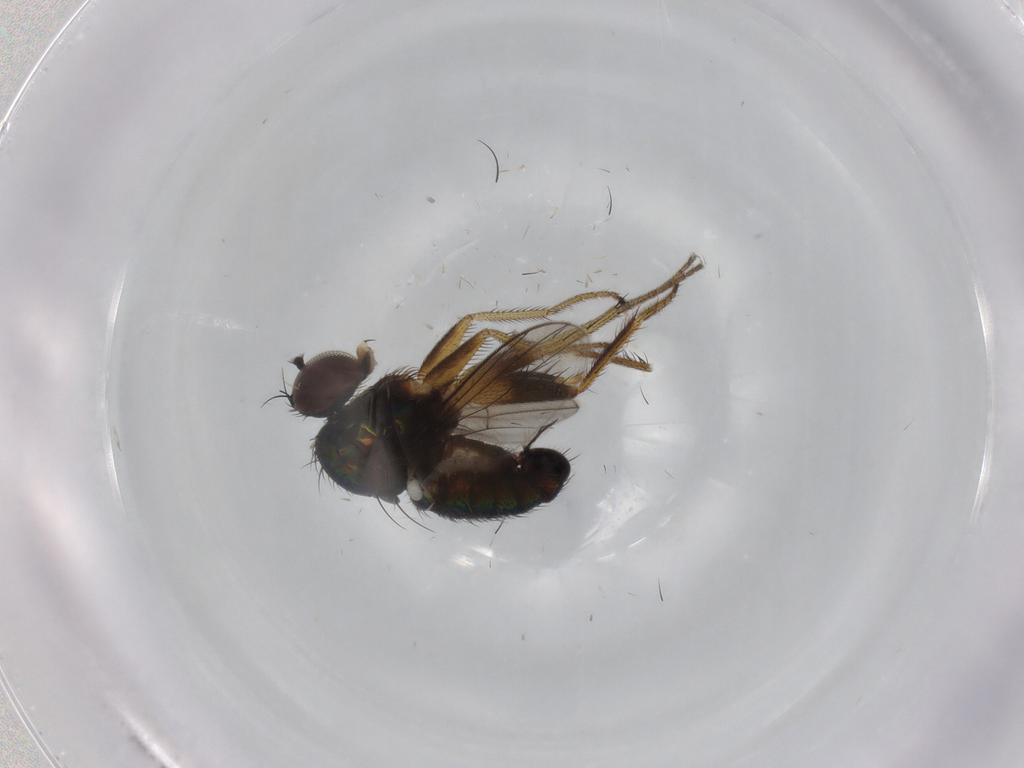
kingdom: Animalia
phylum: Arthropoda
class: Insecta
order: Diptera
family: Dolichopodidae
